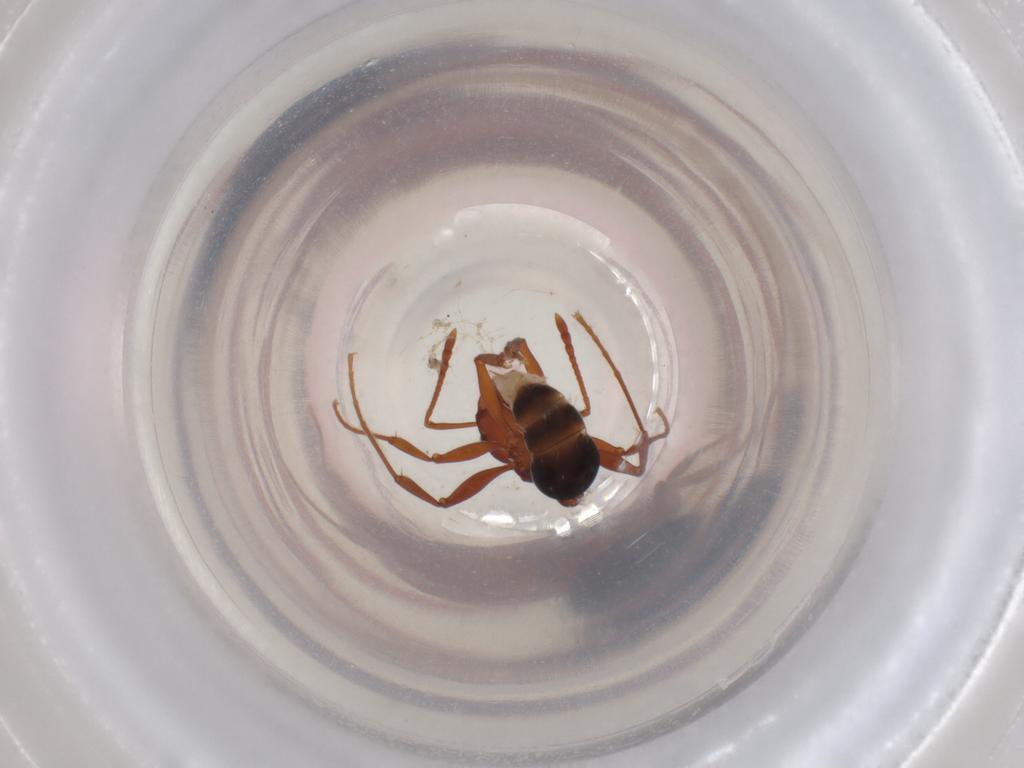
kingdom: Animalia
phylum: Arthropoda
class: Insecta
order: Hymenoptera
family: Formicidae
